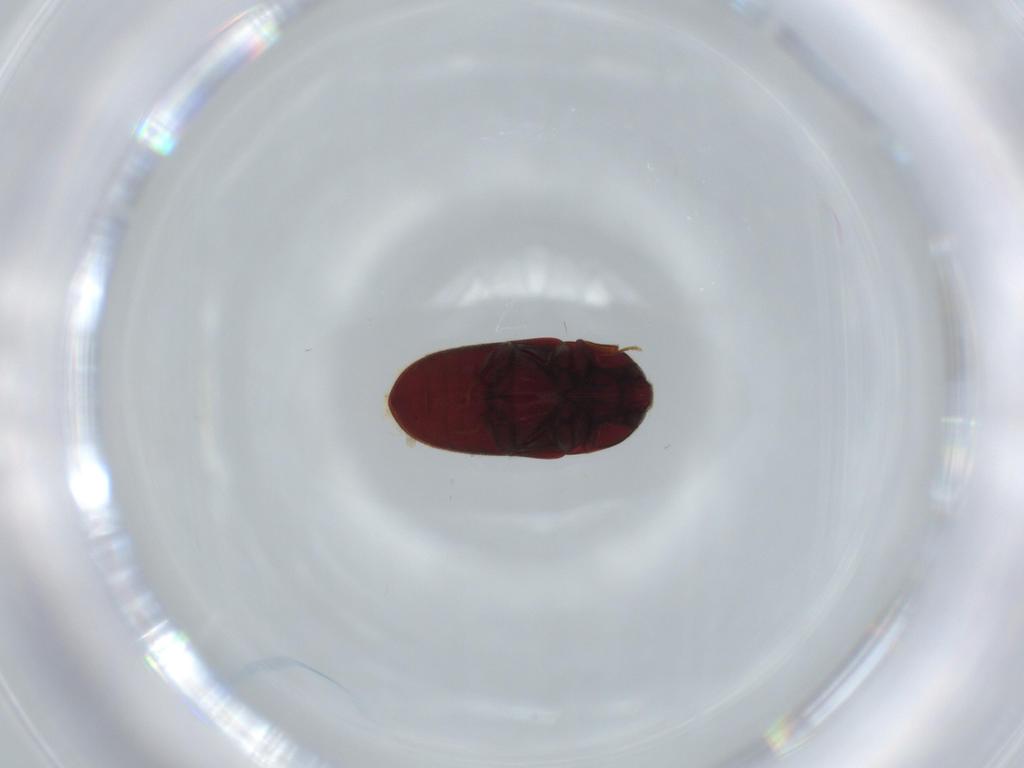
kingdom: Animalia
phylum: Arthropoda
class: Insecta
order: Coleoptera
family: Throscidae
